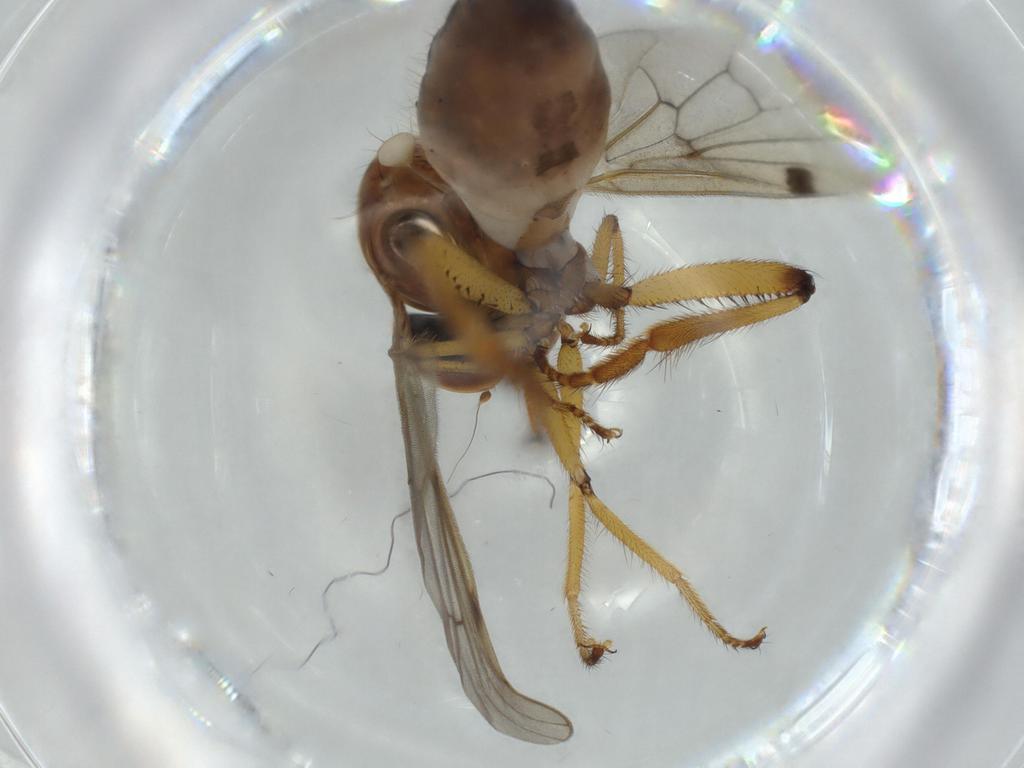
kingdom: Animalia
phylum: Arthropoda
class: Insecta
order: Diptera
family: Hybotidae
